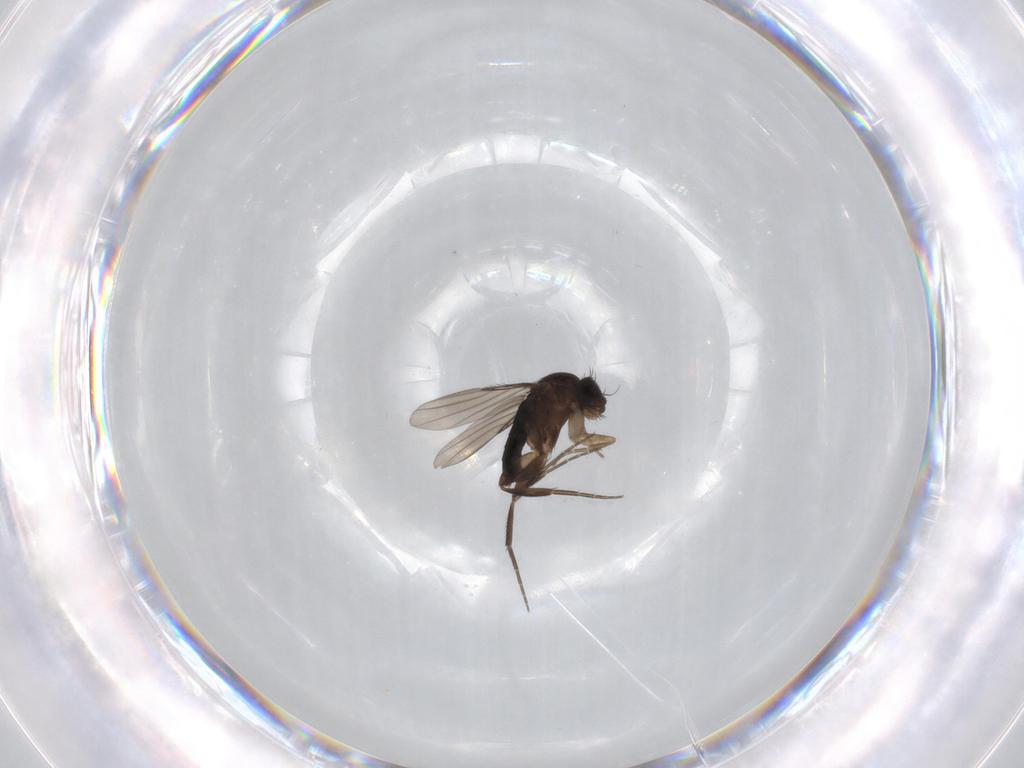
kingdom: Animalia
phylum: Arthropoda
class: Insecta
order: Diptera
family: Phoridae
